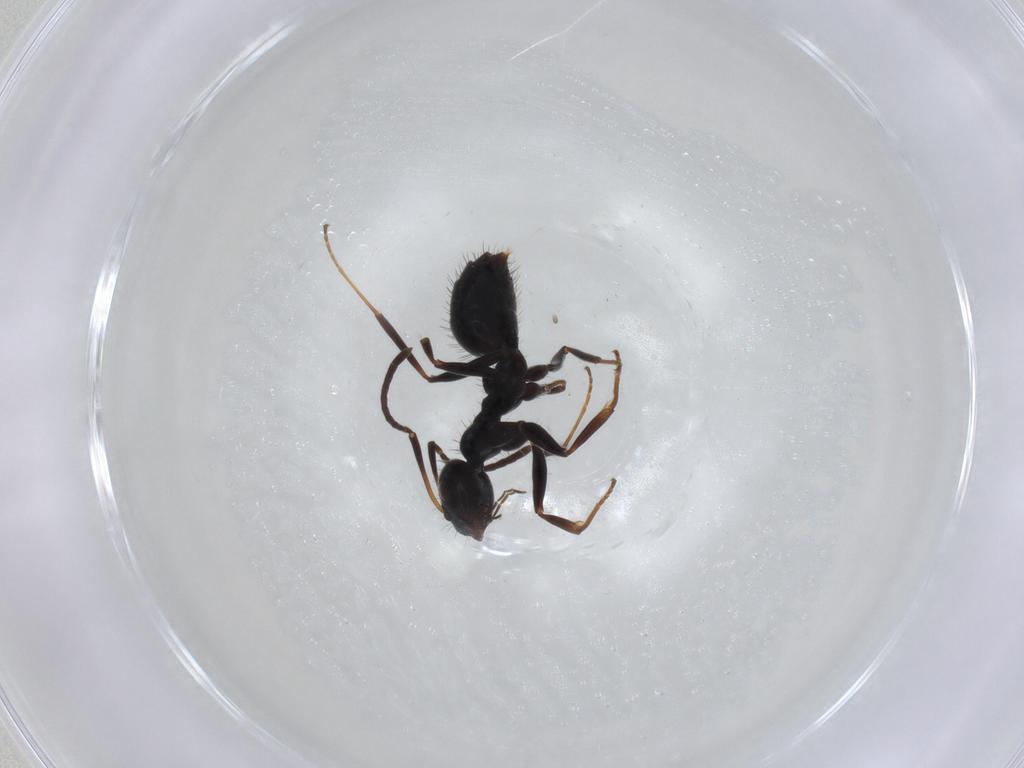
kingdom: Animalia
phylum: Arthropoda
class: Insecta
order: Hymenoptera
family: Formicidae
